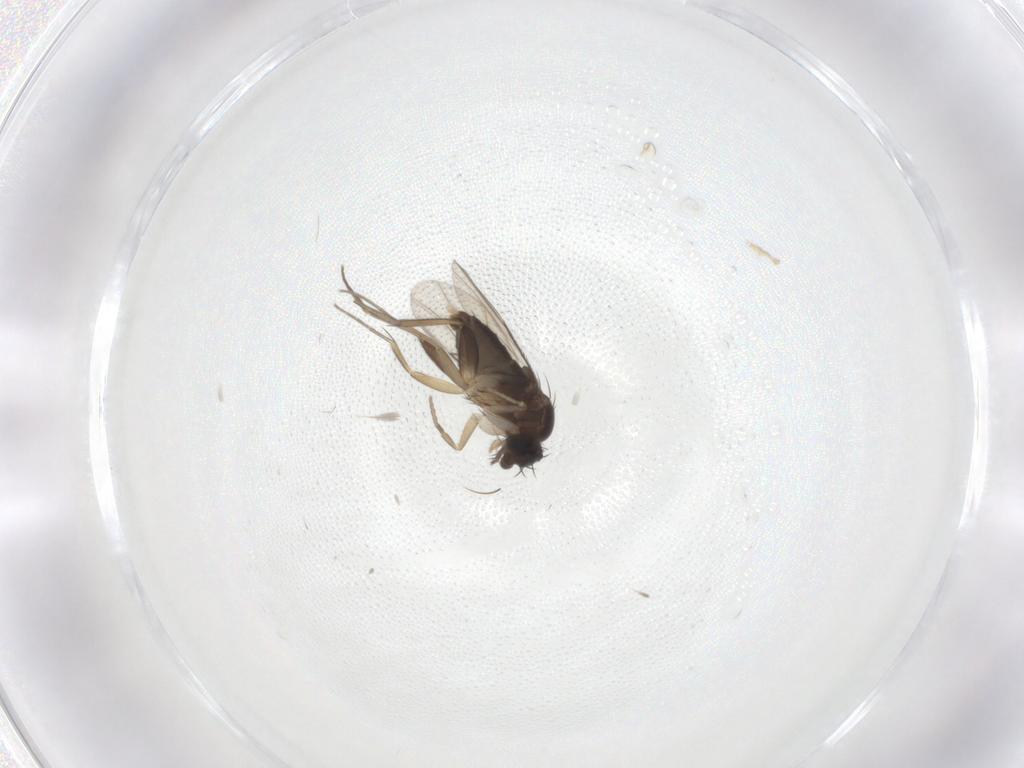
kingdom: Animalia
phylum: Arthropoda
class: Insecta
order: Diptera
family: Phoridae
